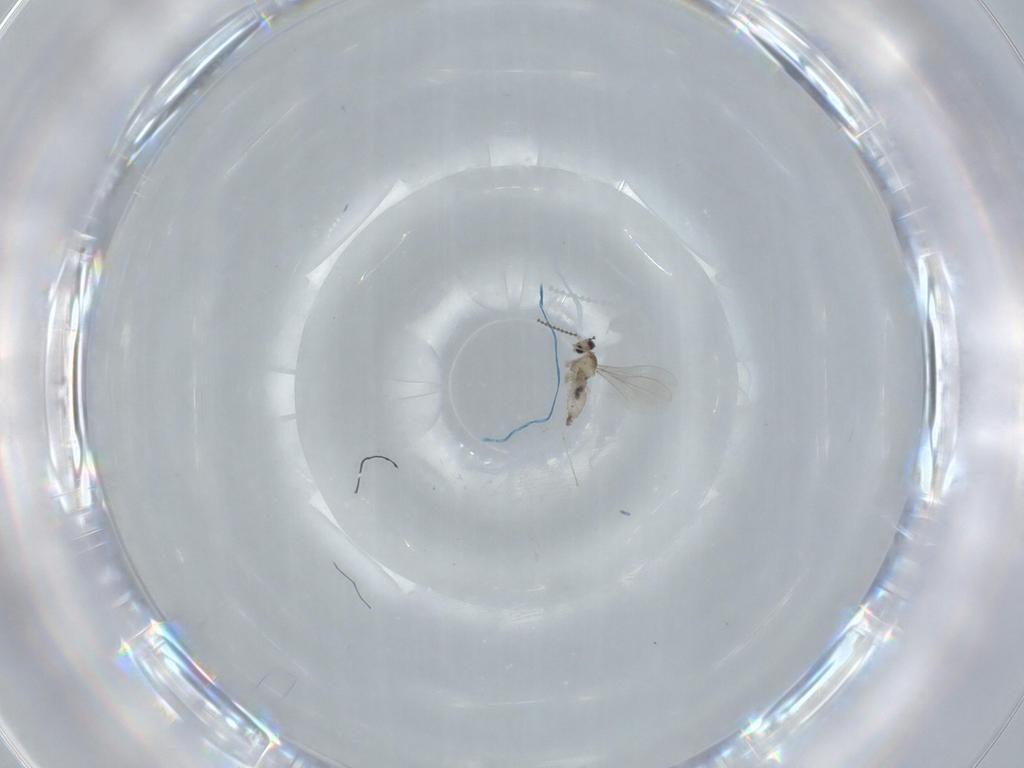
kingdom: Animalia
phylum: Arthropoda
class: Insecta
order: Diptera
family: Cecidomyiidae
